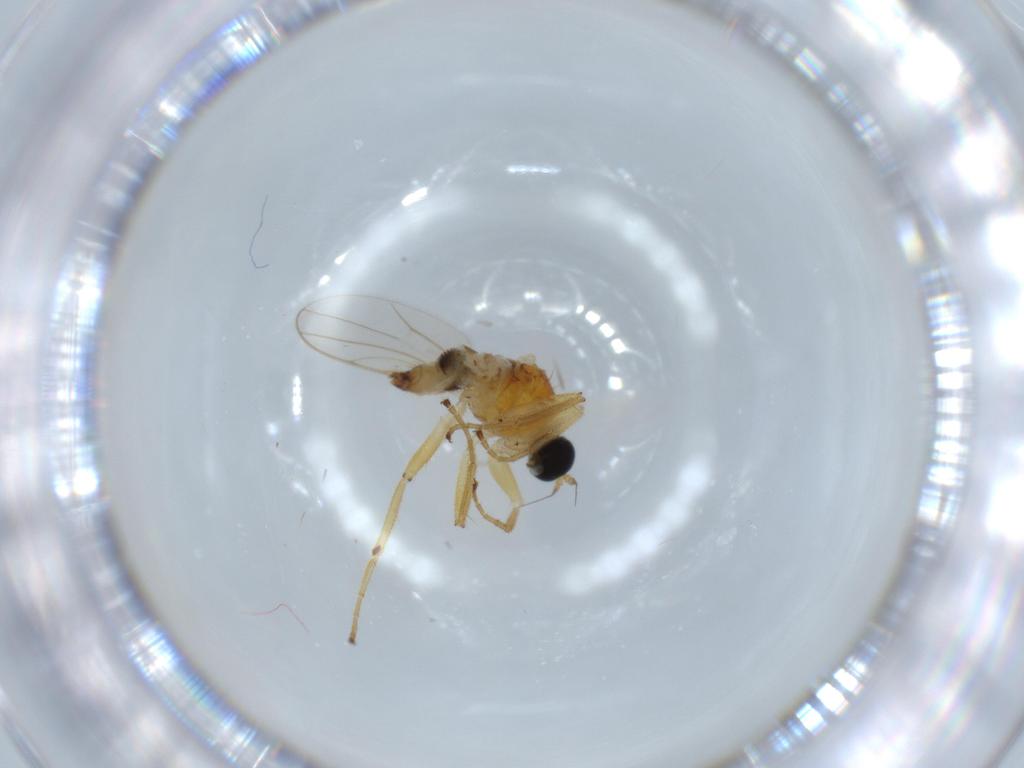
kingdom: Animalia
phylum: Arthropoda
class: Insecta
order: Diptera
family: Hybotidae
